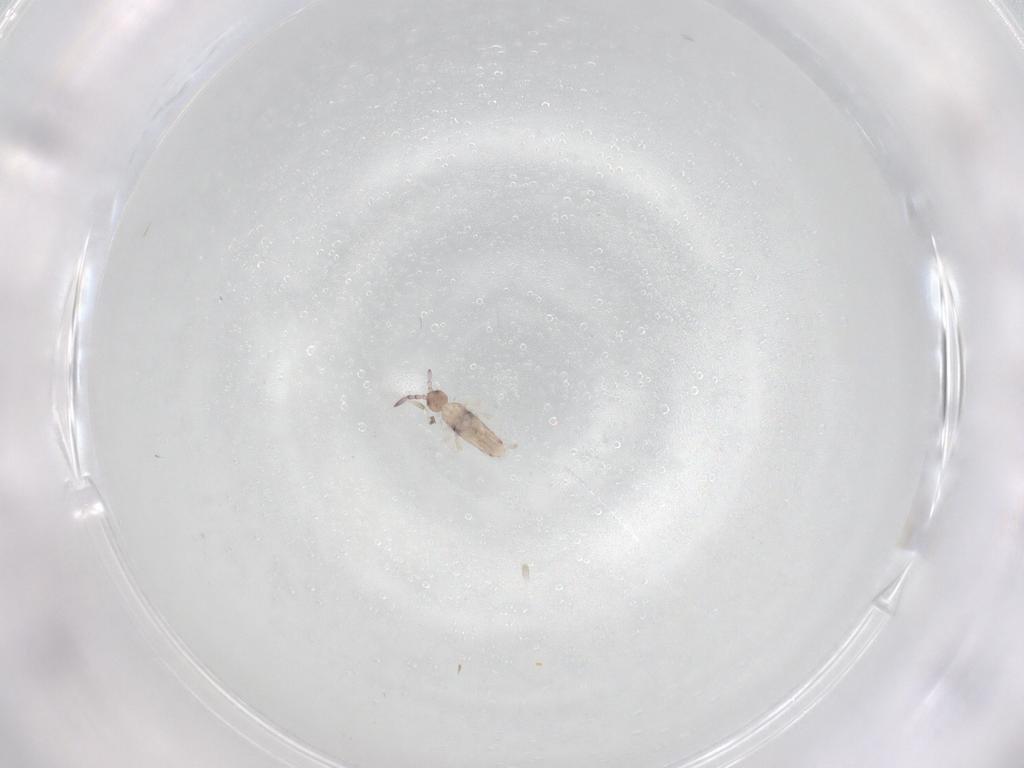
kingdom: Animalia
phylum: Arthropoda
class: Collembola
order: Entomobryomorpha
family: Entomobryidae
